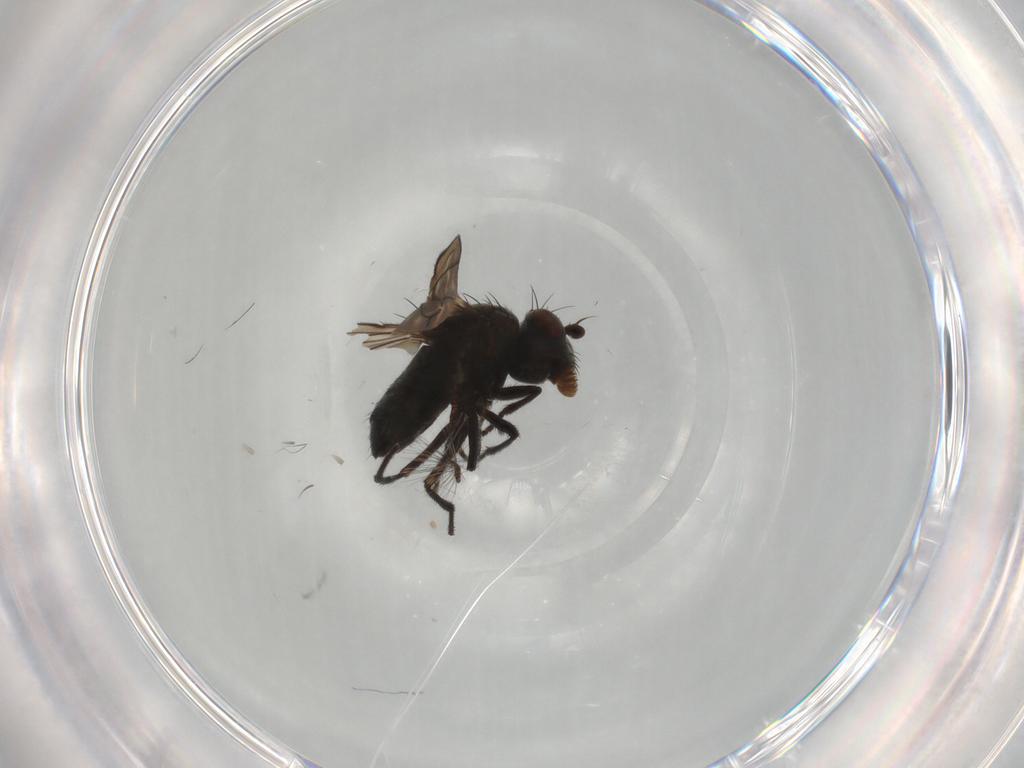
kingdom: Animalia
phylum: Arthropoda
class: Insecta
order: Diptera
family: Ephydridae
